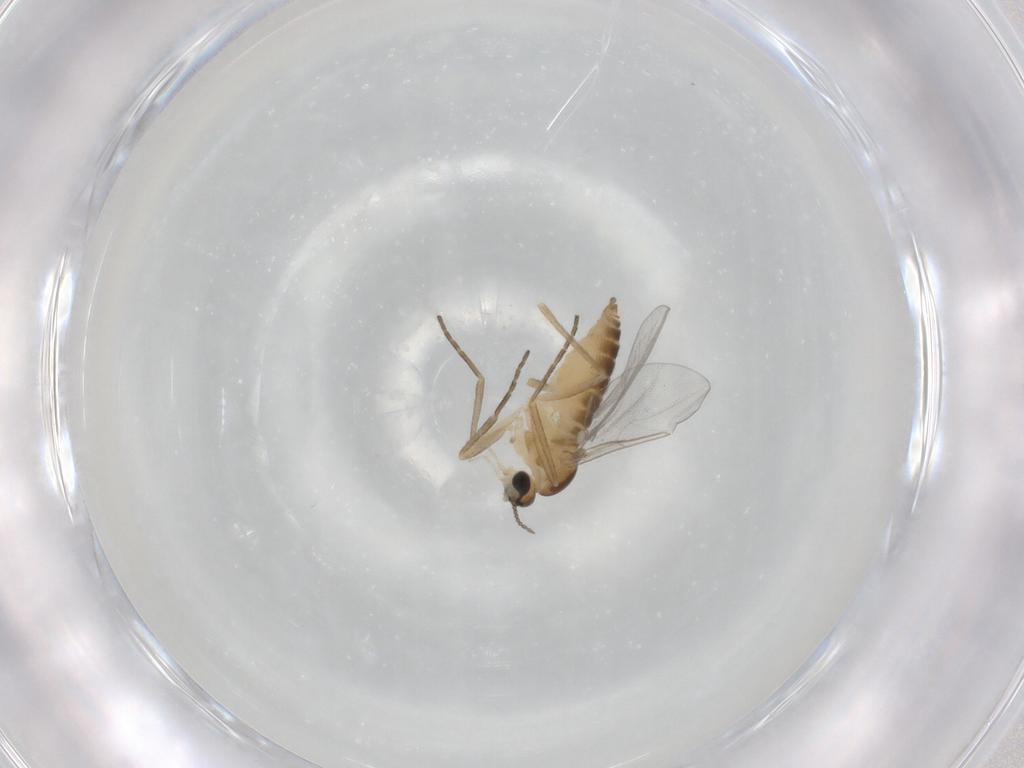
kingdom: Animalia
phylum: Arthropoda
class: Insecta
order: Diptera
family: Cecidomyiidae
